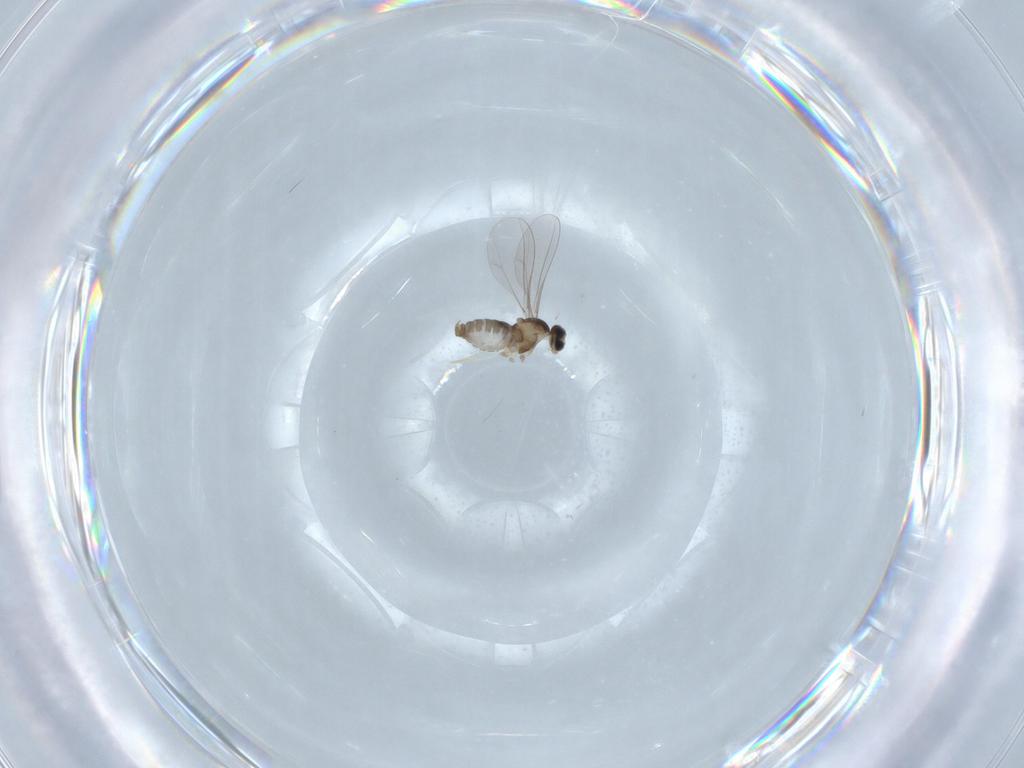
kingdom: Animalia
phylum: Arthropoda
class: Insecta
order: Diptera
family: Cecidomyiidae
